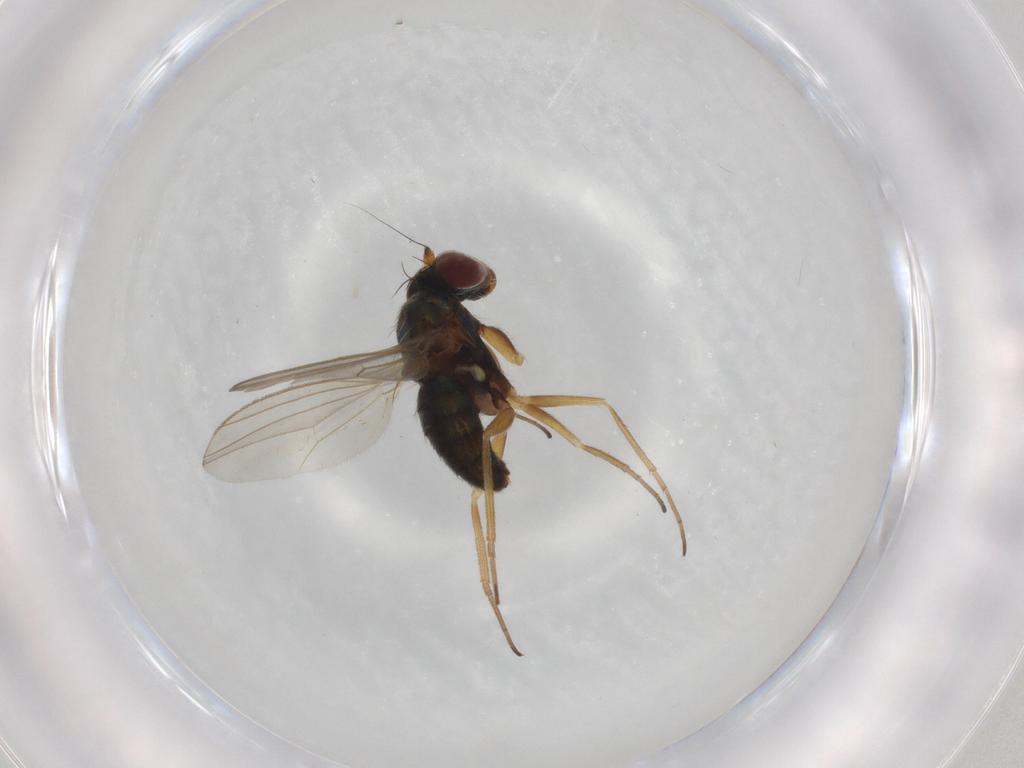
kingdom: Animalia
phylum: Arthropoda
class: Insecta
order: Diptera
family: Dolichopodidae
